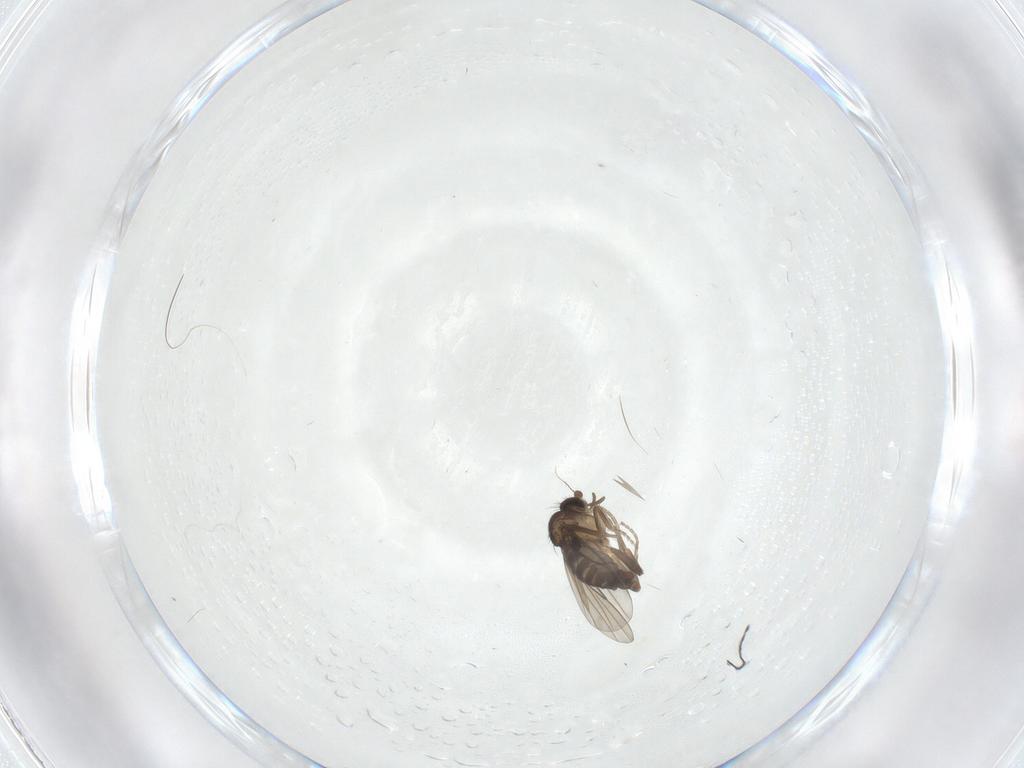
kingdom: Animalia
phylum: Arthropoda
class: Insecta
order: Diptera
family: Phoridae
